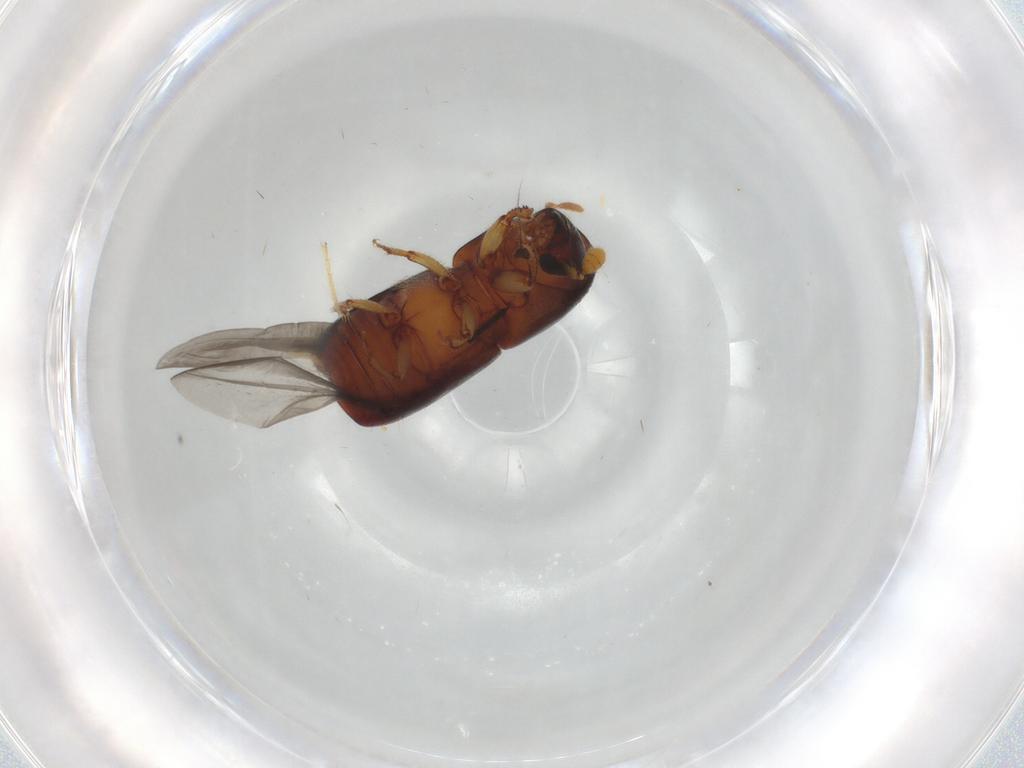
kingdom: Animalia
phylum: Arthropoda
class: Insecta
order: Coleoptera
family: Curculionidae
